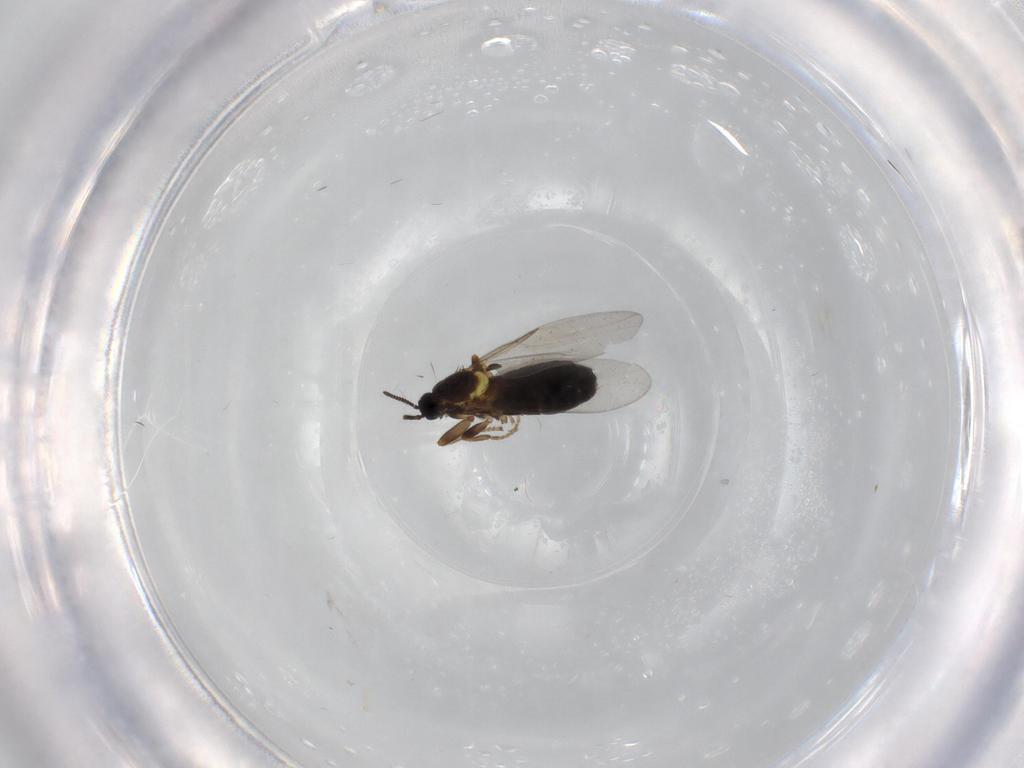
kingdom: Animalia
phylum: Arthropoda
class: Insecta
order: Diptera
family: Scatopsidae
